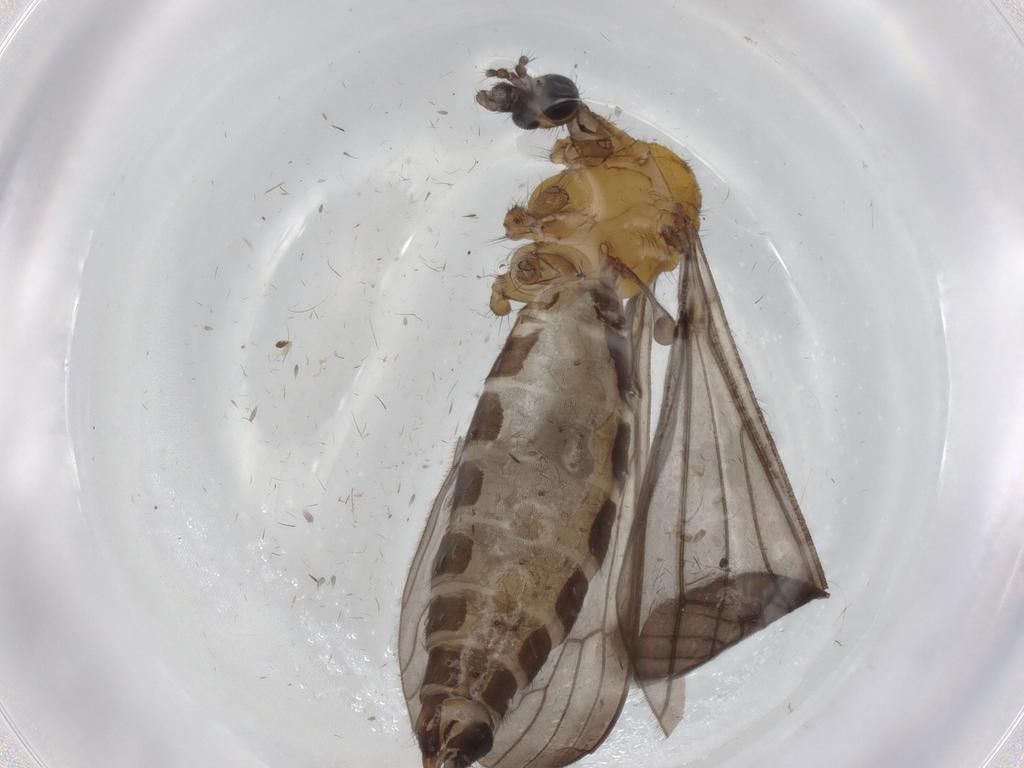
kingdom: Animalia
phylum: Arthropoda
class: Insecta
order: Diptera
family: Limoniidae
